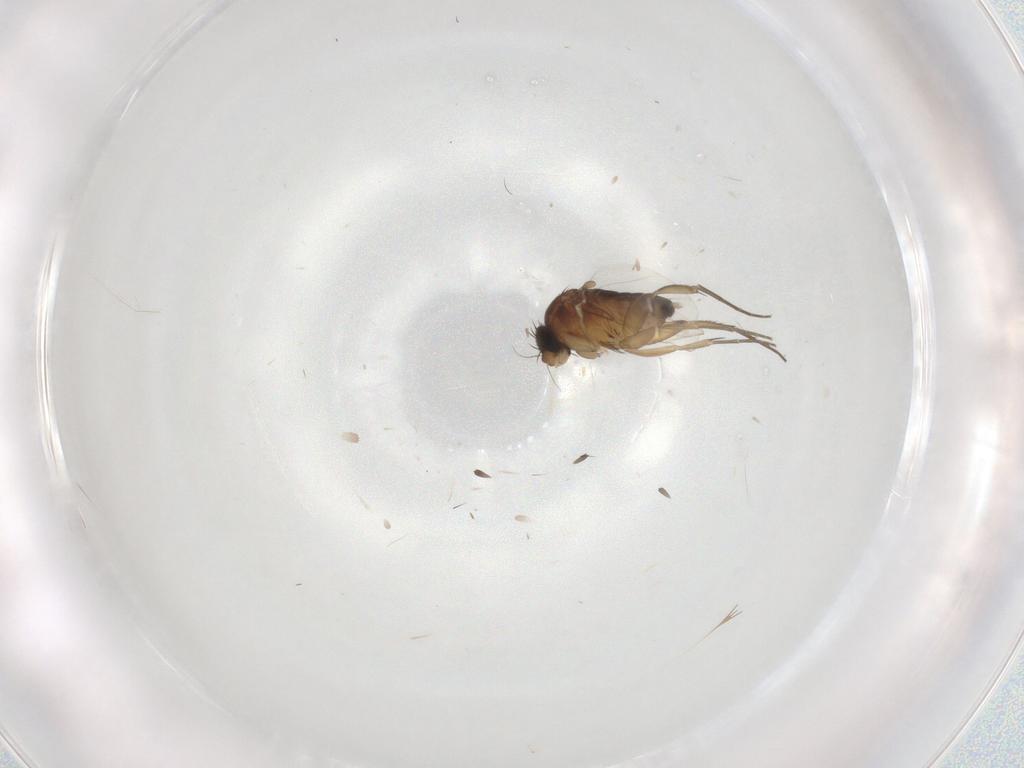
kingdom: Animalia
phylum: Arthropoda
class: Insecta
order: Diptera
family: Phoridae
